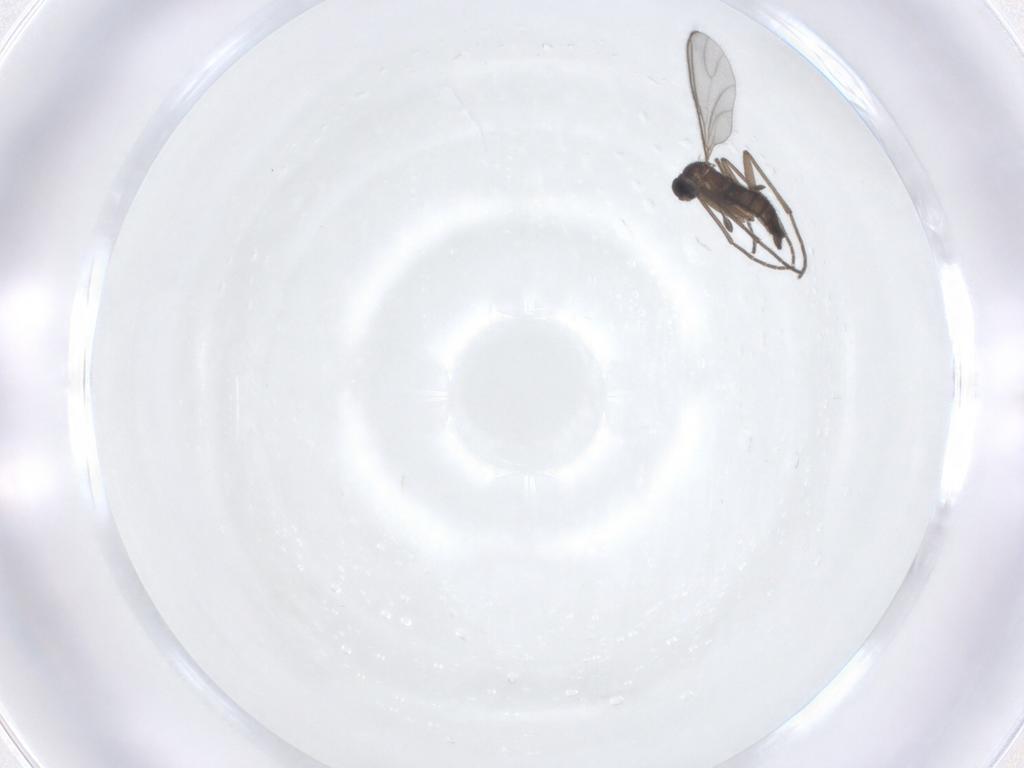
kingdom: Animalia
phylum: Arthropoda
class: Insecta
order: Diptera
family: Sciaridae
